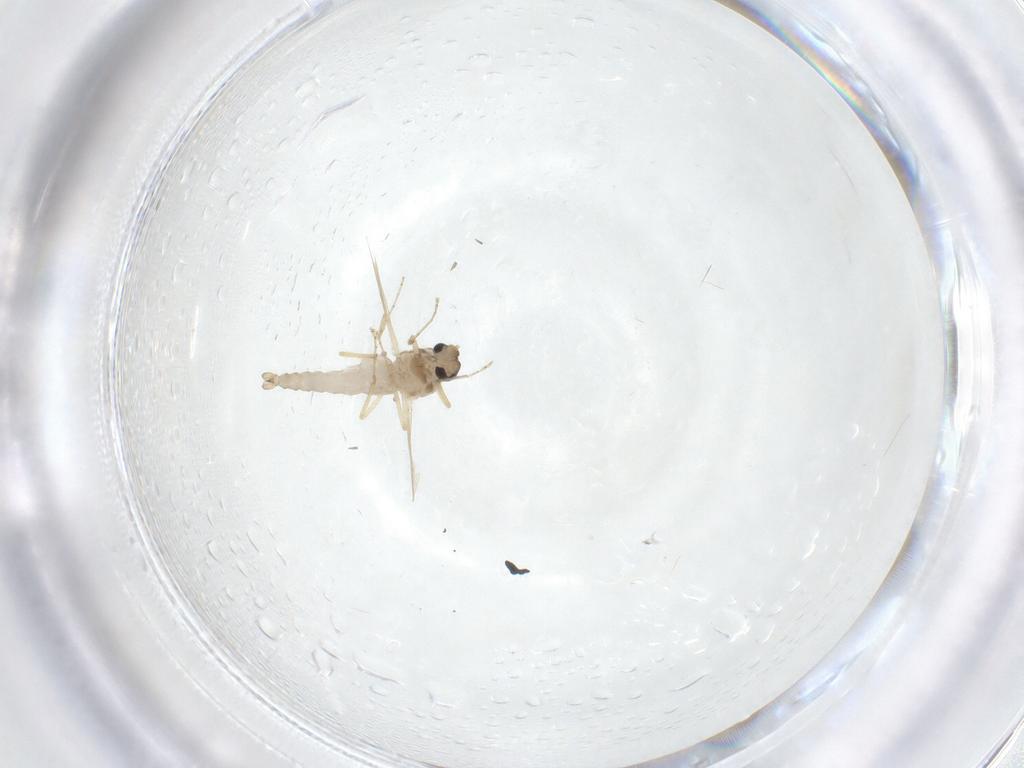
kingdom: Animalia
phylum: Arthropoda
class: Insecta
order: Diptera
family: Ceratopogonidae
